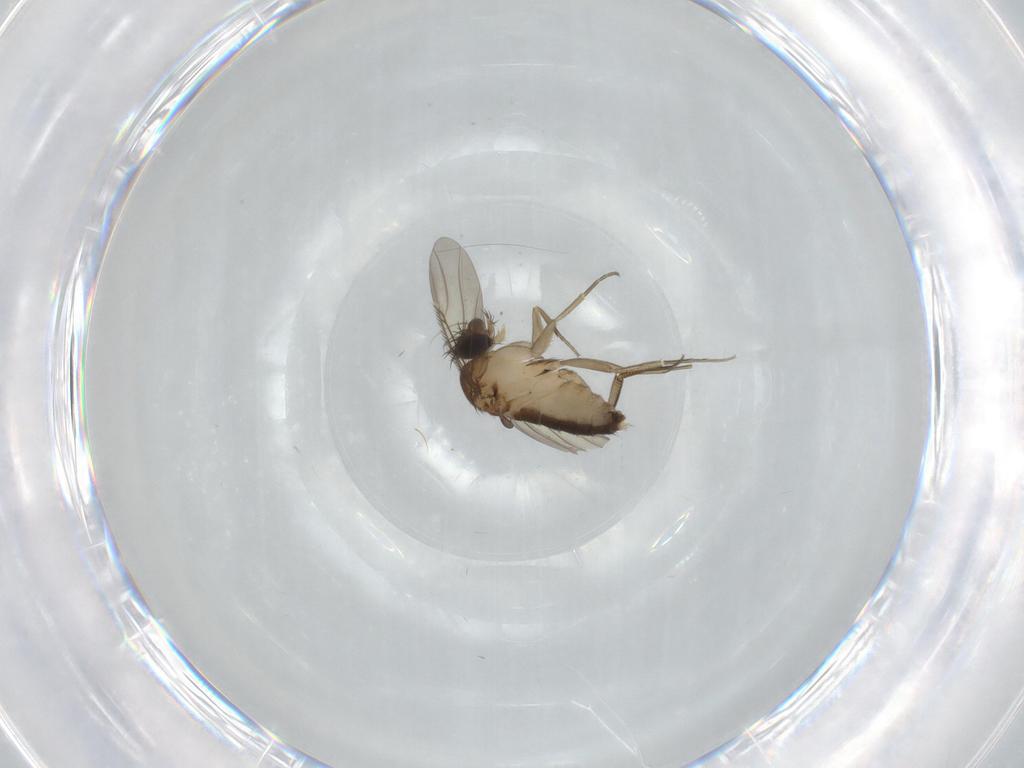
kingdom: Animalia
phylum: Arthropoda
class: Insecta
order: Diptera
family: Phoridae
